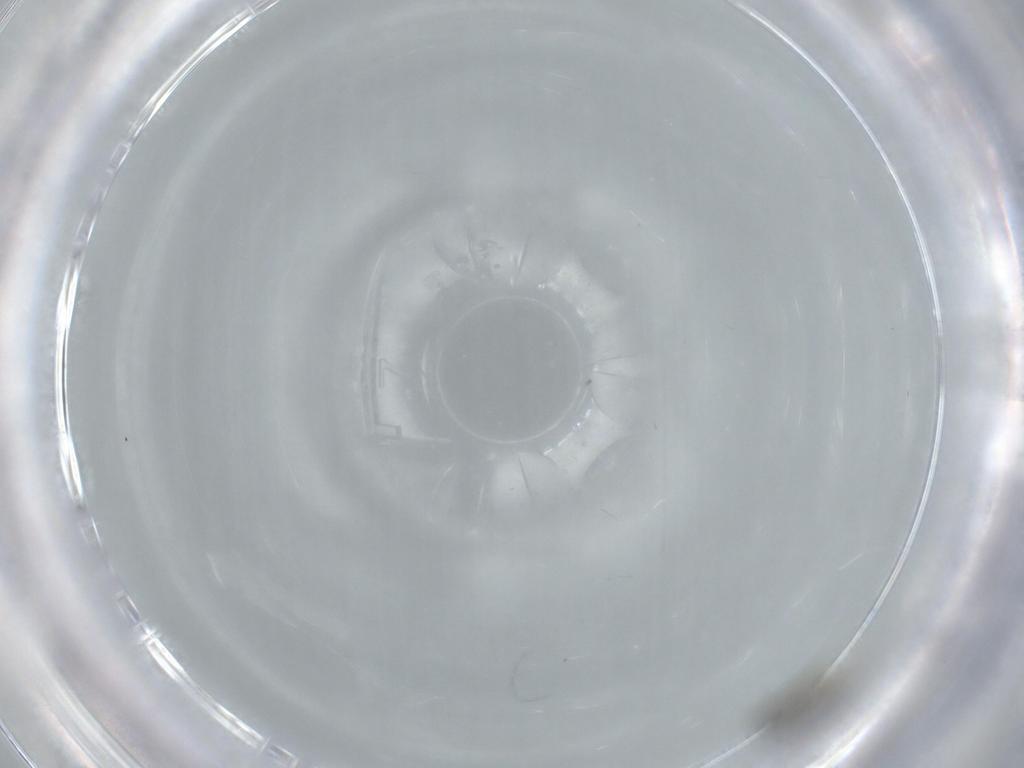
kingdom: Animalia
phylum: Arthropoda
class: Insecta
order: Diptera
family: Cecidomyiidae
